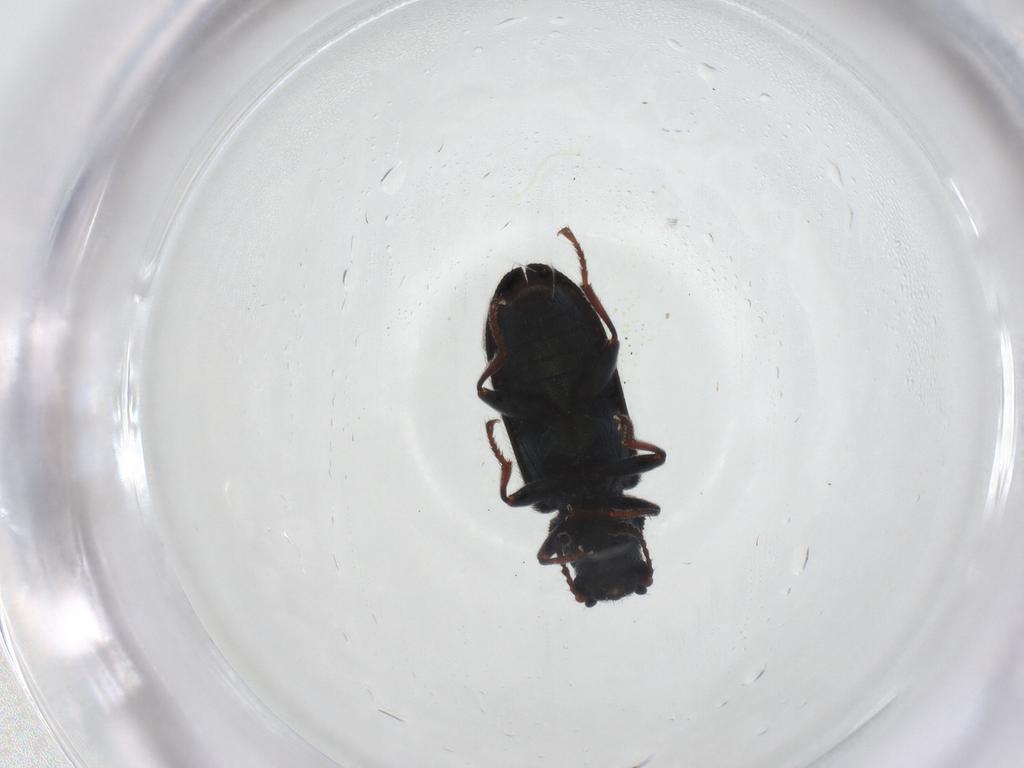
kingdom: Animalia
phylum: Arthropoda
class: Insecta
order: Coleoptera
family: Melyridae
